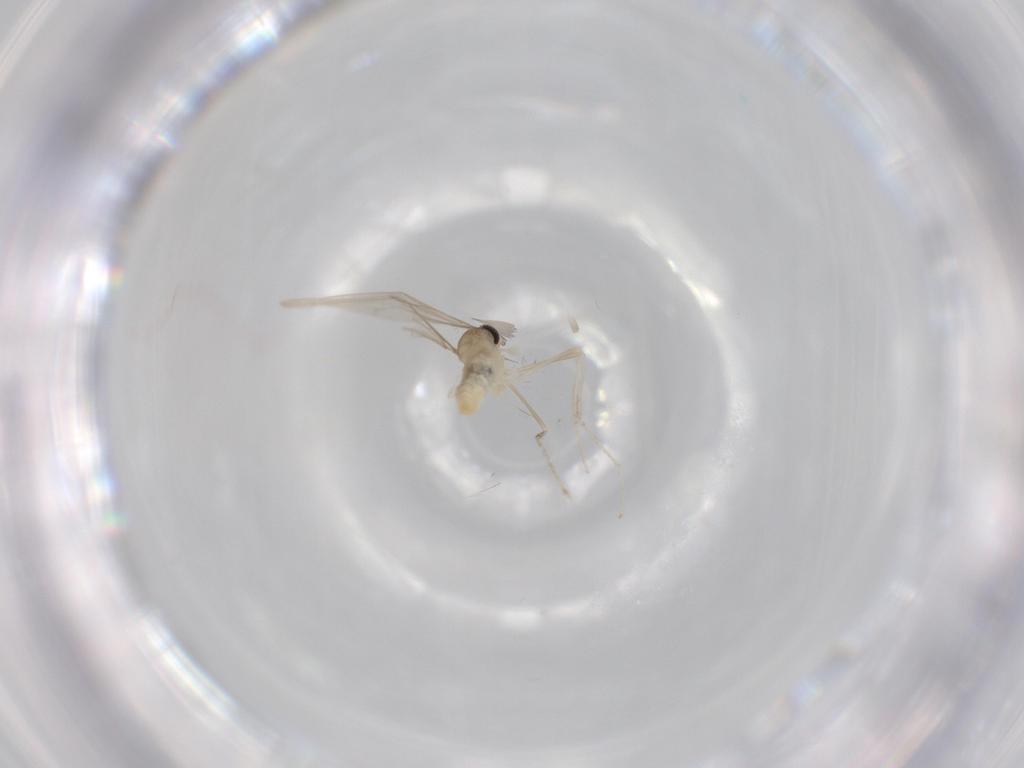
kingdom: Animalia
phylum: Arthropoda
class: Insecta
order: Diptera
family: Cecidomyiidae
